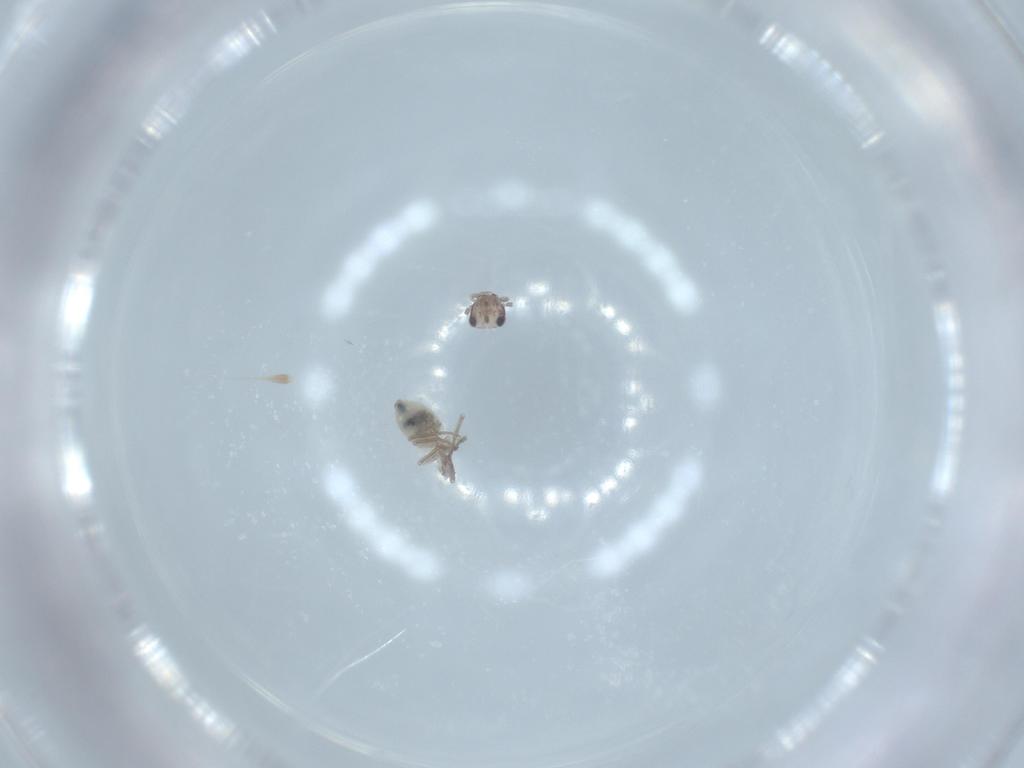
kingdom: Animalia
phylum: Arthropoda
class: Insecta
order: Psocodea
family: Lepidopsocidae
